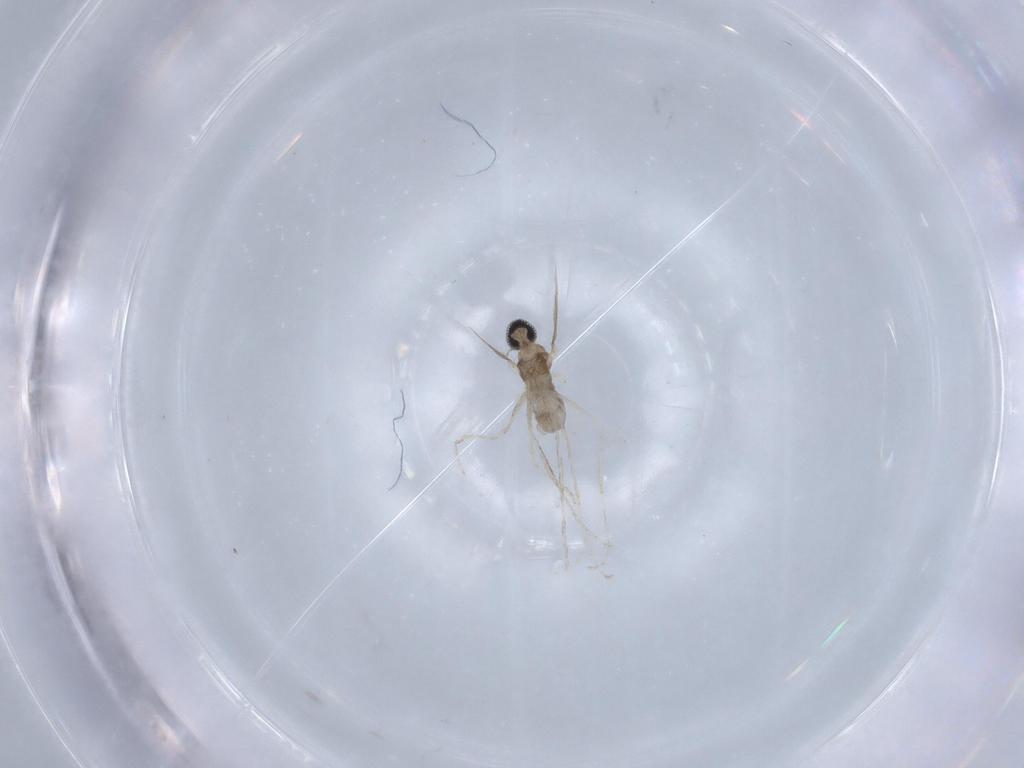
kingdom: Animalia
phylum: Arthropoda
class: Insecta
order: Diptera
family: Cecidomyiidae
